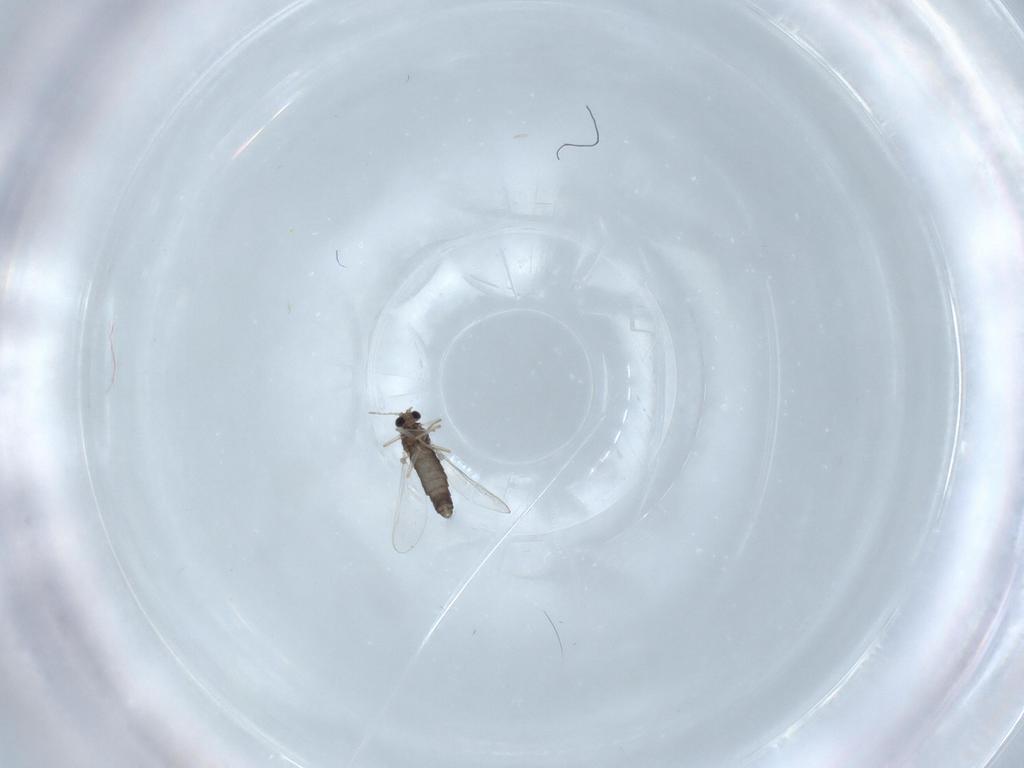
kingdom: Animalia
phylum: Arthropoda
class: Insecta
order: Diptera
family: Chironomidae
